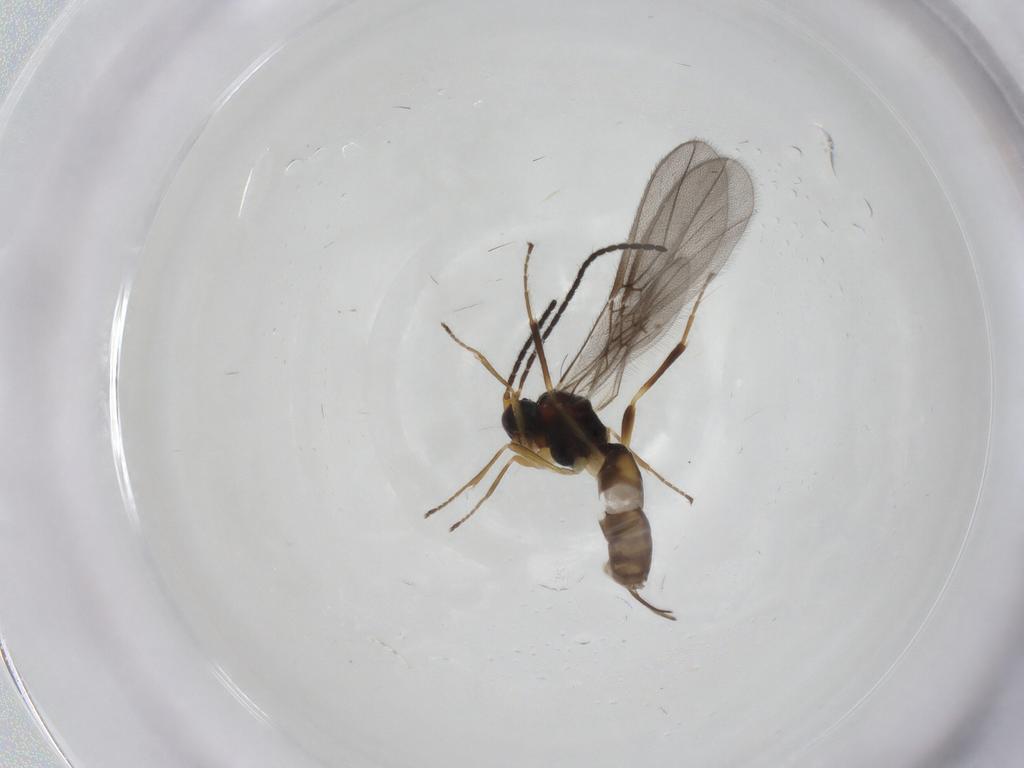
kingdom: Animalia
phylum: Arthropoda
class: Insecta
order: Hymenoptera
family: Braconidae
